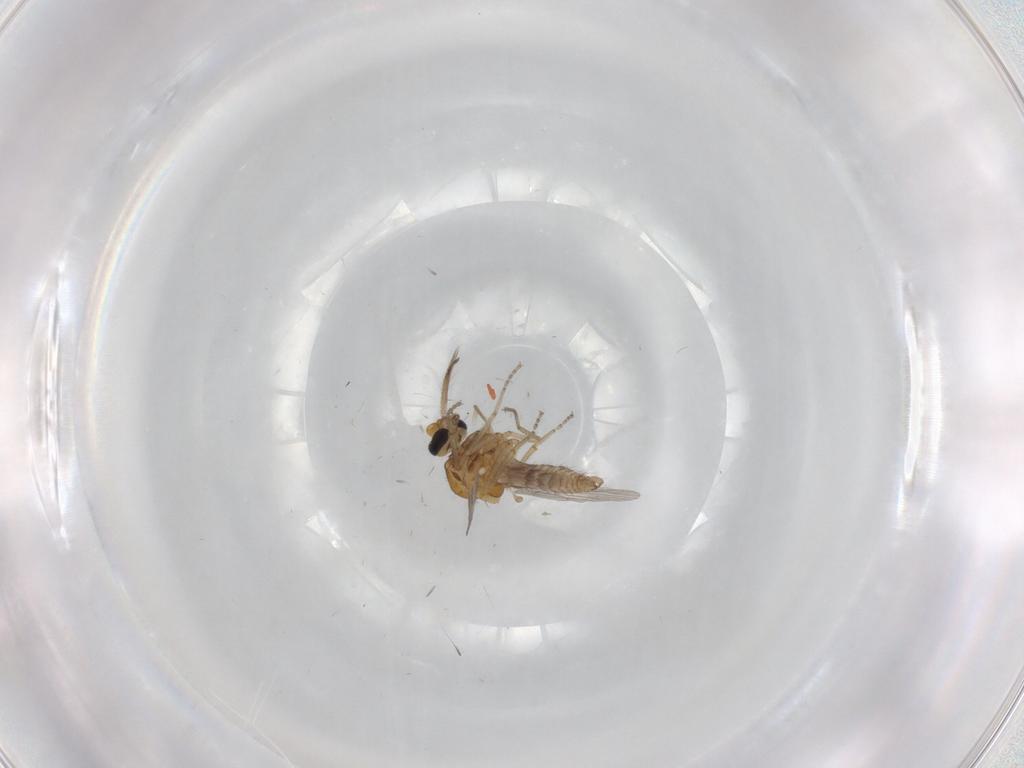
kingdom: Animalia
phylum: Arthropoda
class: Insecta
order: Diptera
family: Ceratopogonidae
